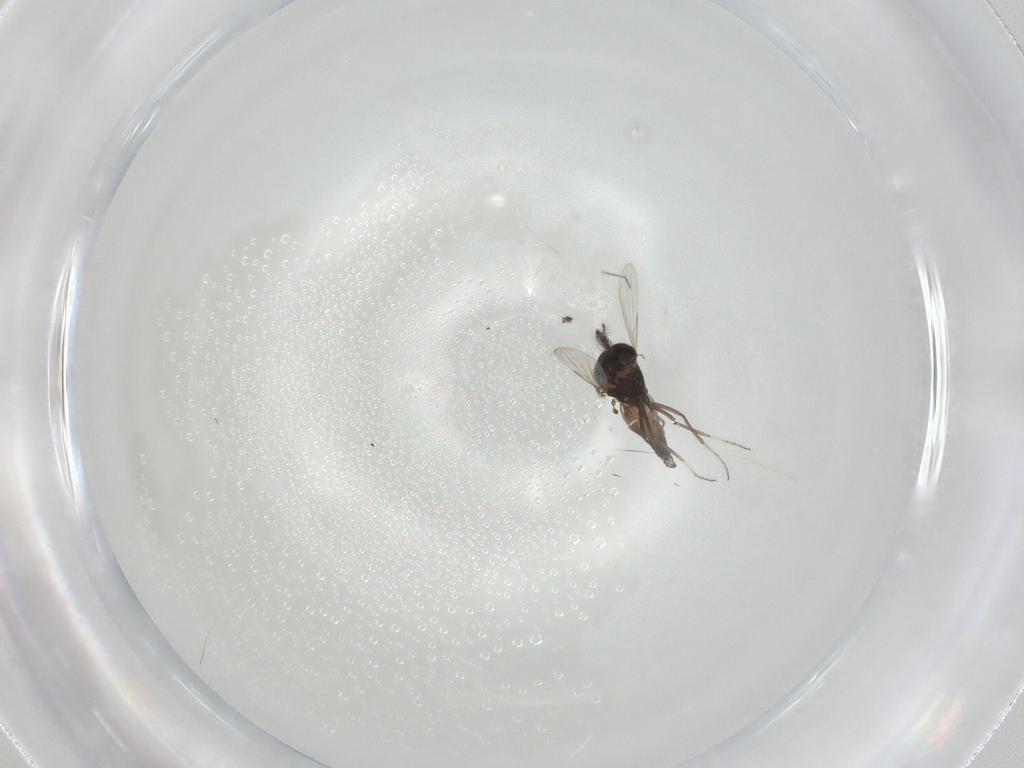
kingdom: Animalia
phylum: Arthropoda
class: Insecta
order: Diptera
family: Ceratopogonidae
